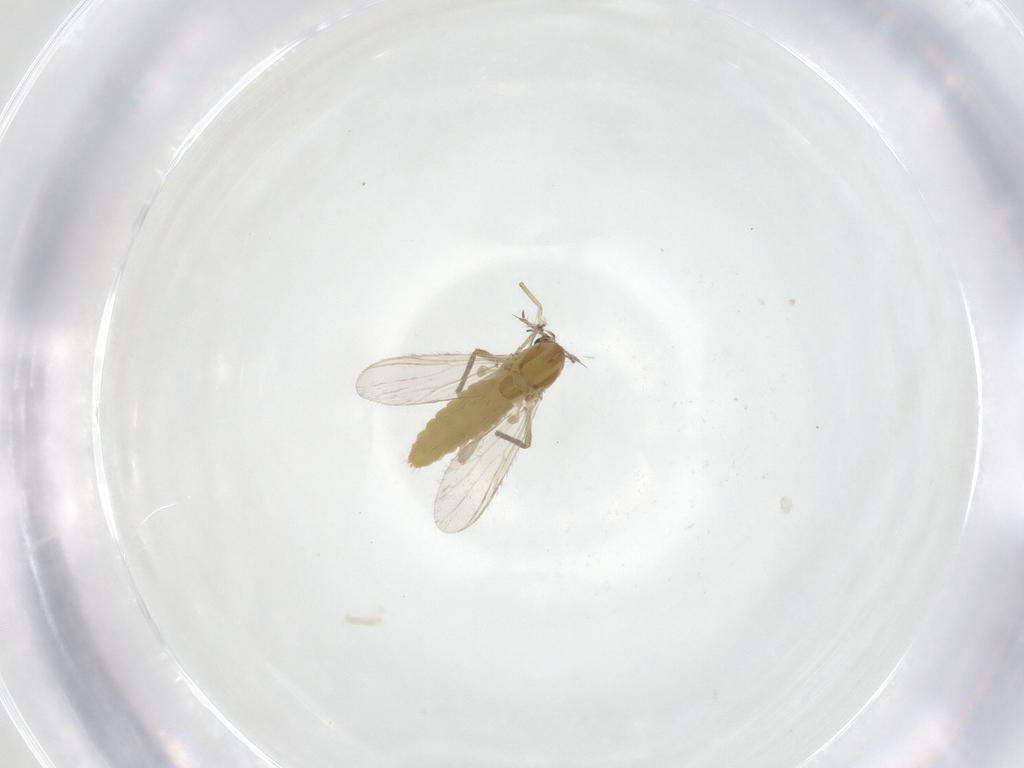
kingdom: Animalia
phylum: Arthropoda
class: Insecta
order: Diptera
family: Chironomidae
